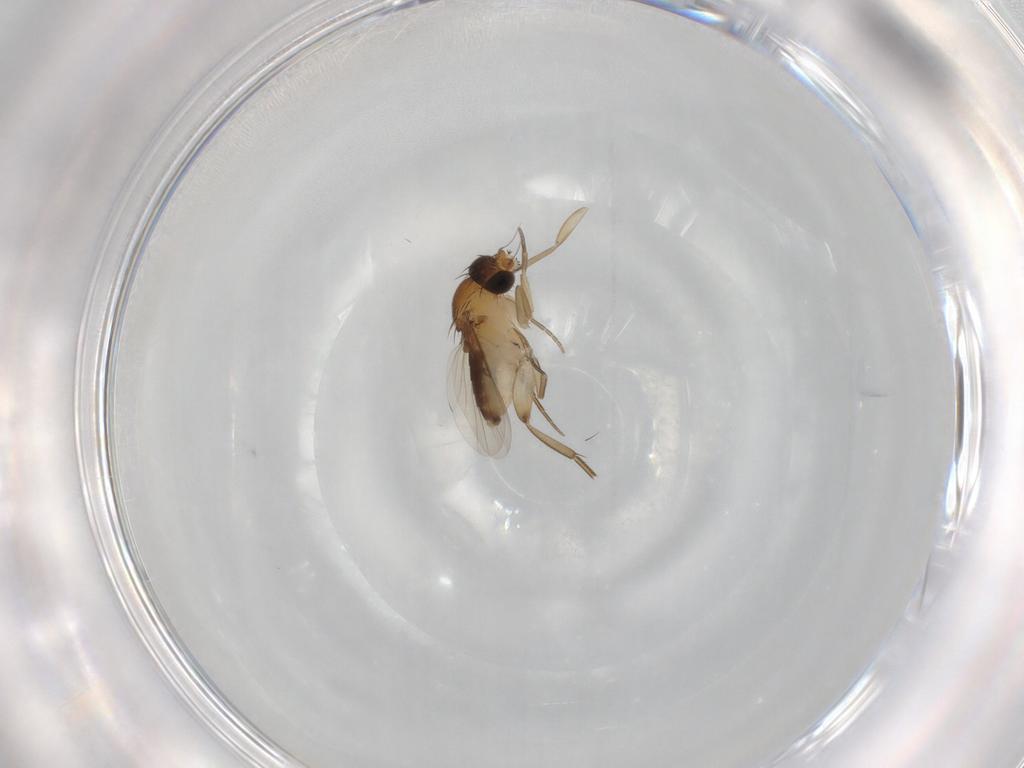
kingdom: Animalia
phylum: Arthropoda
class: Insecta
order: Diptera
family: Phoridae
